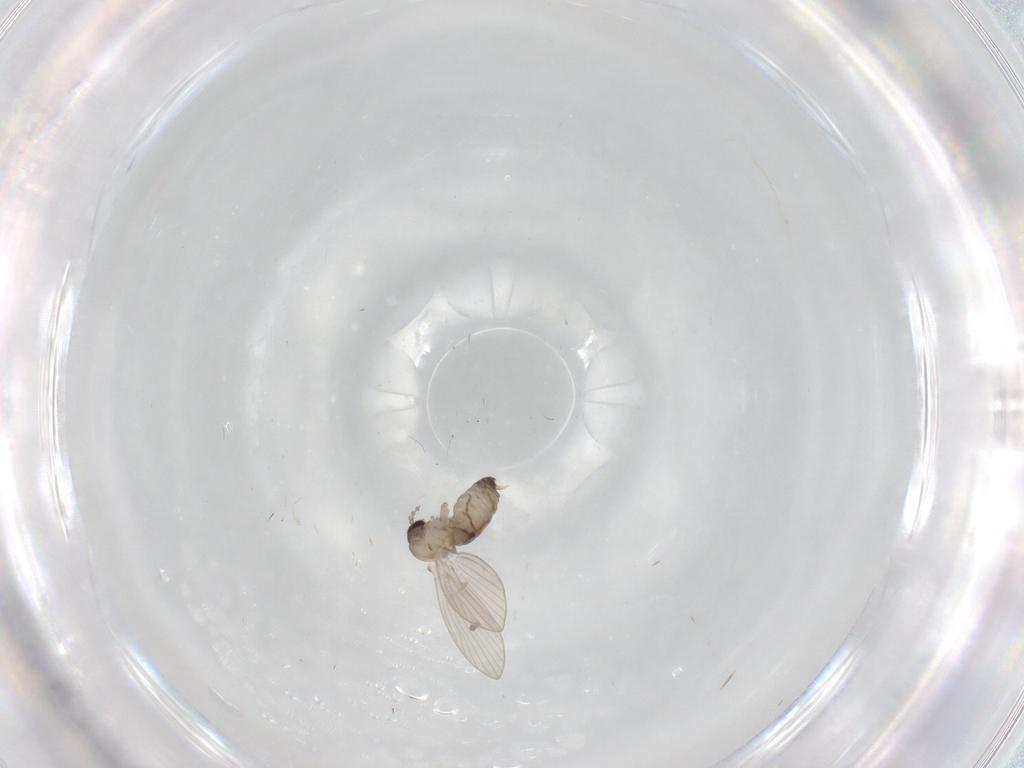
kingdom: Animalia
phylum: Arthropoda
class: Insecta
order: Diptera
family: Psychodidae
